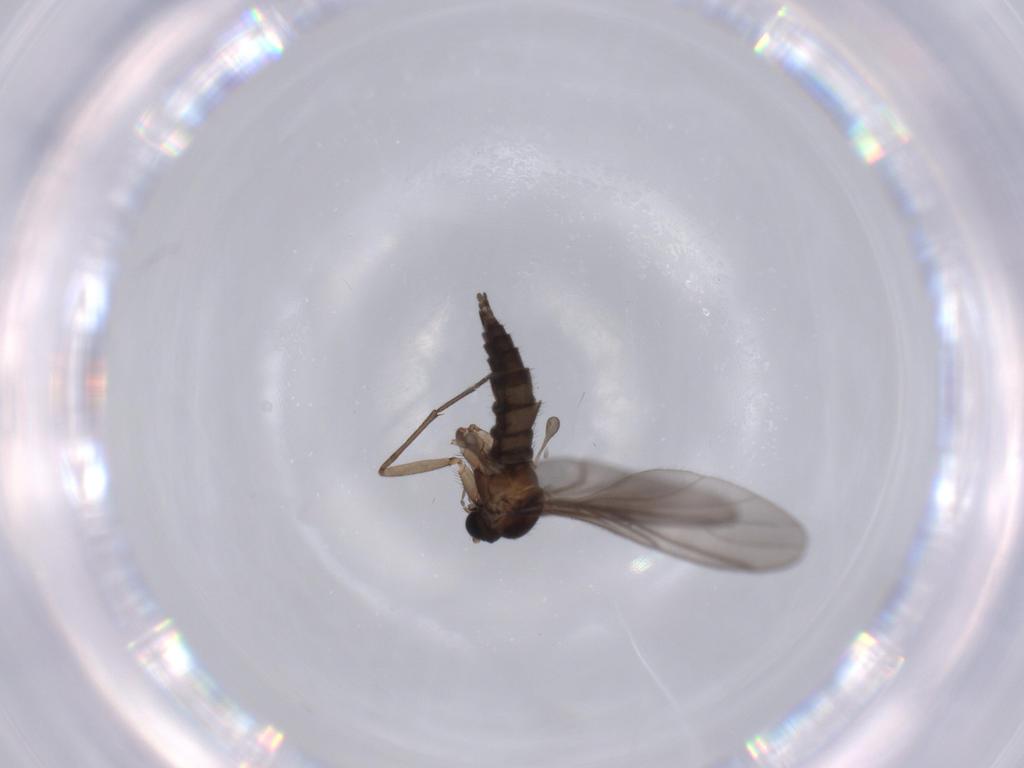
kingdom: Animalia
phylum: Arthropoda
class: Insecta
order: Diptera
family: Sciaridae
